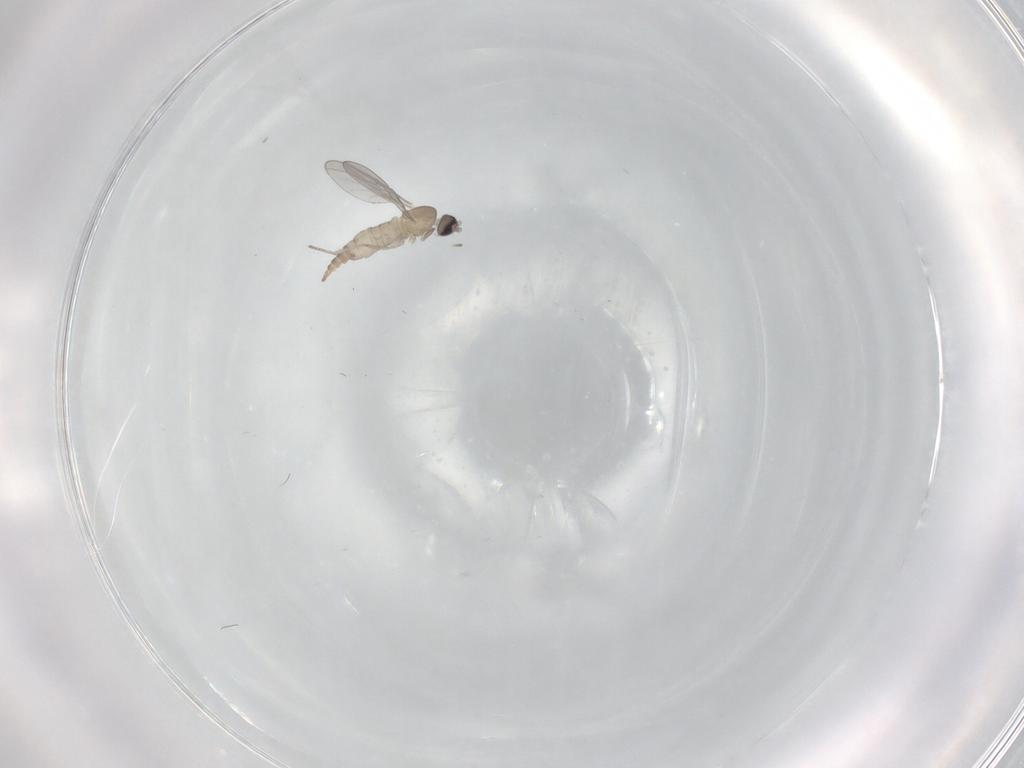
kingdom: Animalia
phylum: Arthropoda
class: Insecta
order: Diptera
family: Cecidomyiidae
